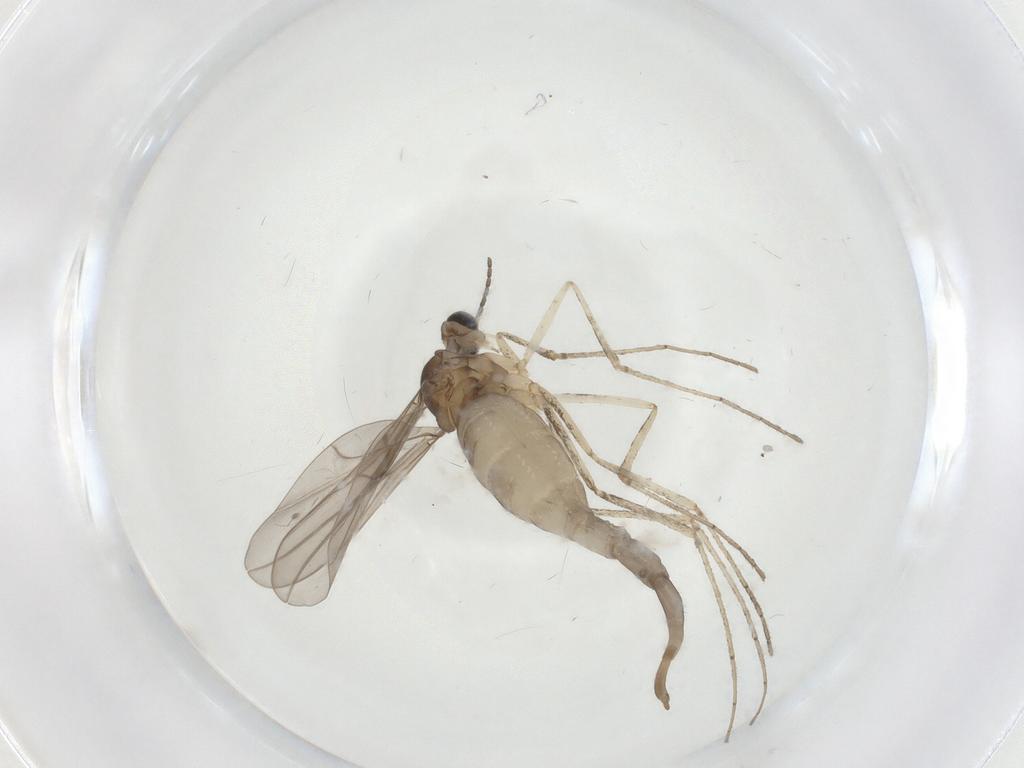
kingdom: Animalia
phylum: Arthropoda
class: Insecta
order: Diptera
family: Cecidomyiidae
